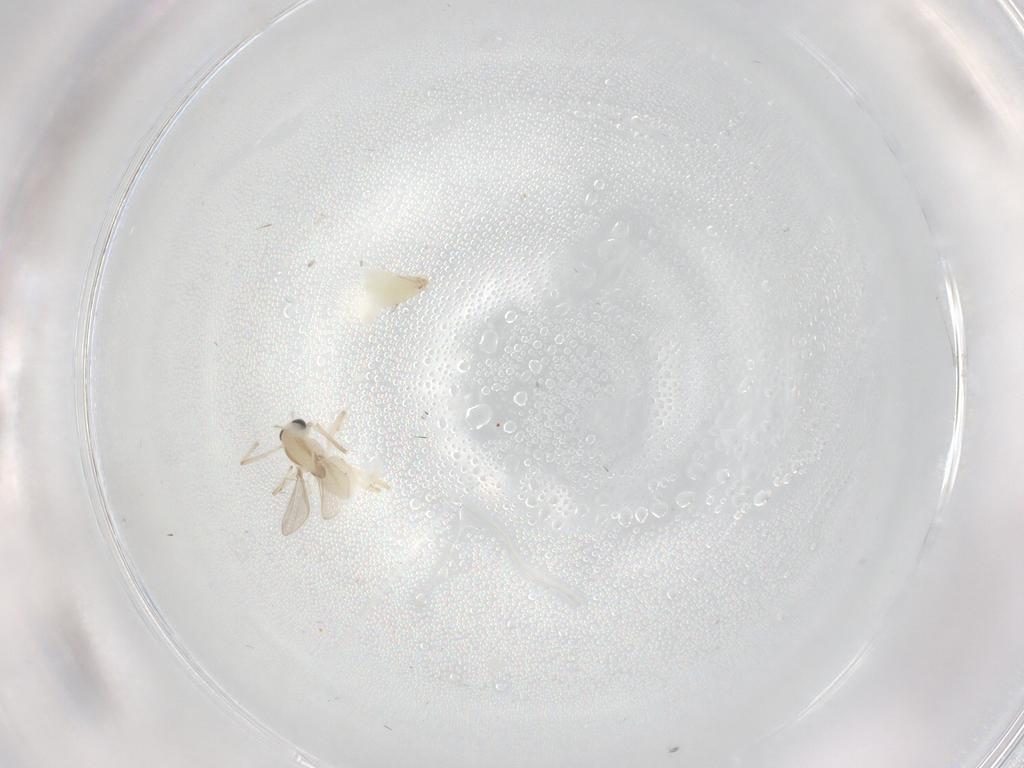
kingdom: Animalia
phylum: Arthropoda
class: Insecta
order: Diptera
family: Chironomidae
